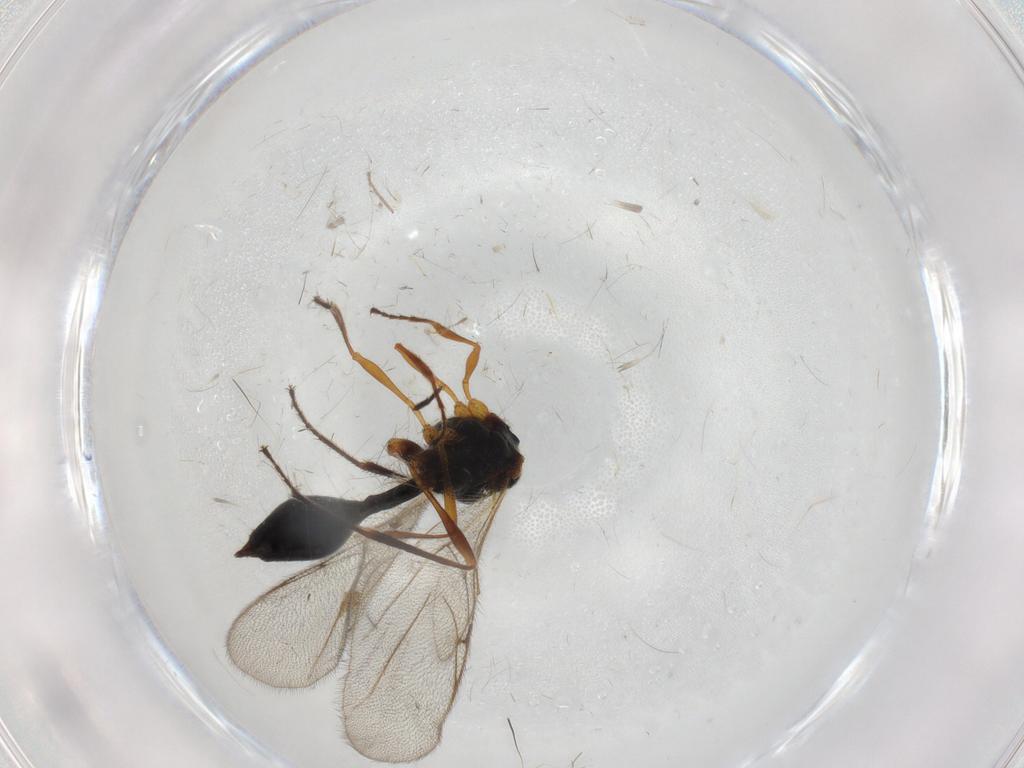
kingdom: Animalia
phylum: Arthropoda
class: Insecta
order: Hymenoptera
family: Diapriidae
